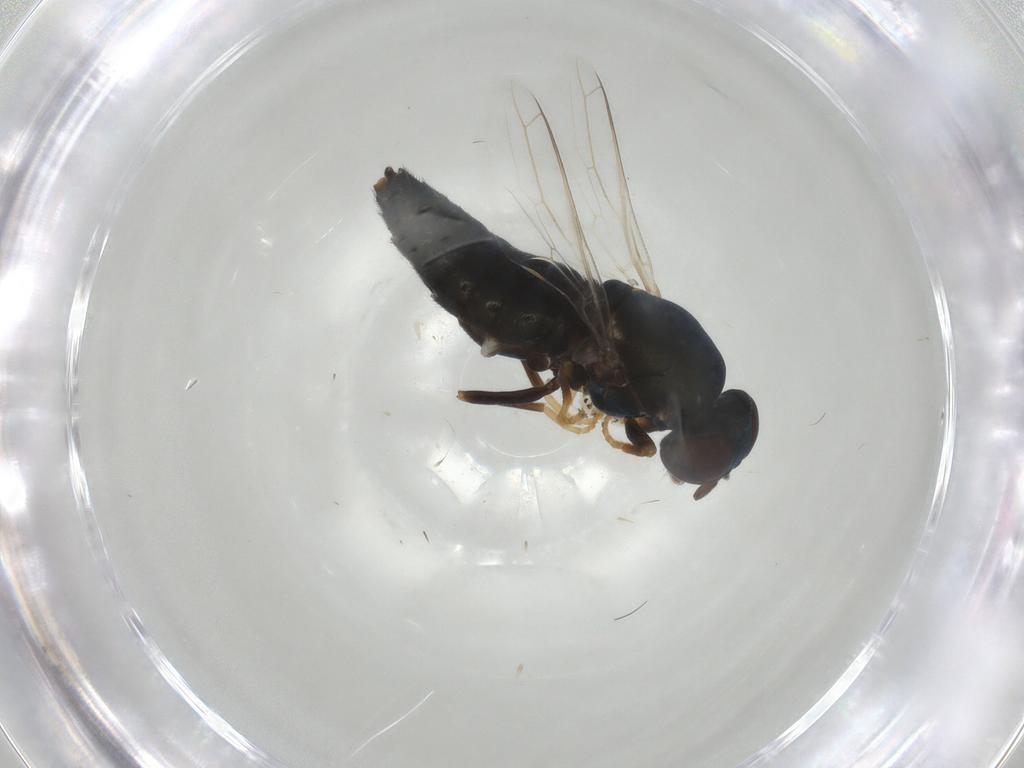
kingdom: Animalia
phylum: Arthropoda
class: Insecta
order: Diptera
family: Scenopinidae
